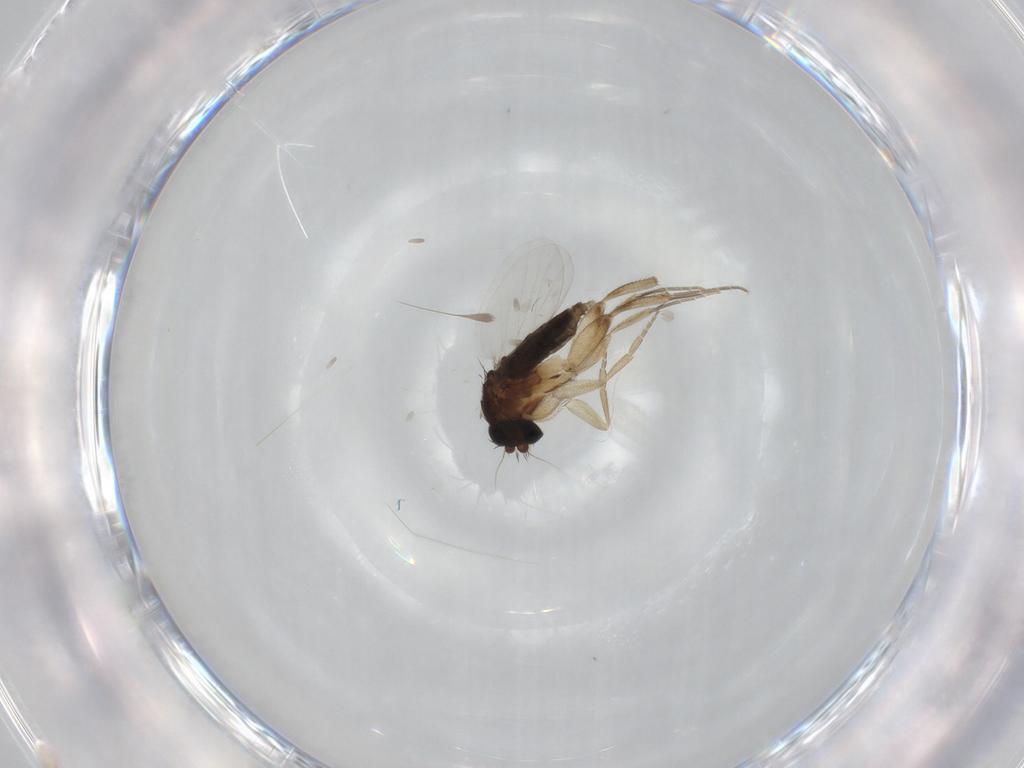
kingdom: Animalia
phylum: Arthropoda
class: Insecta
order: Diptera
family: Phoridae
